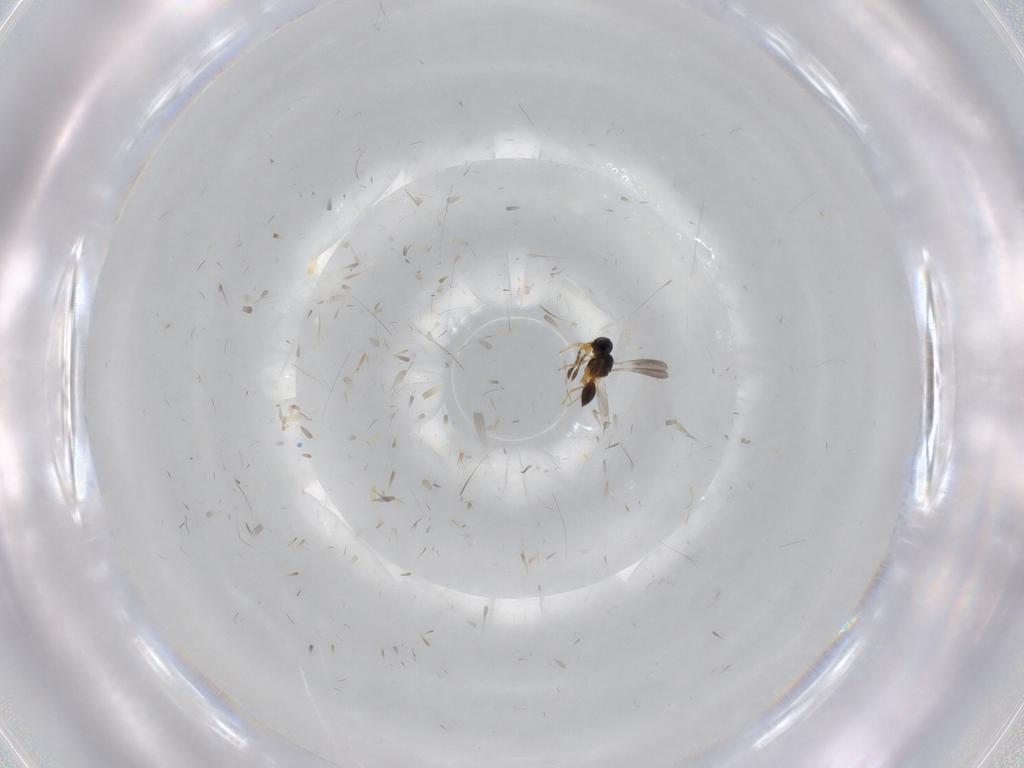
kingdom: Animalia
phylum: Arthropoda
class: Insecta
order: Hymenoptera
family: Platygastridae
